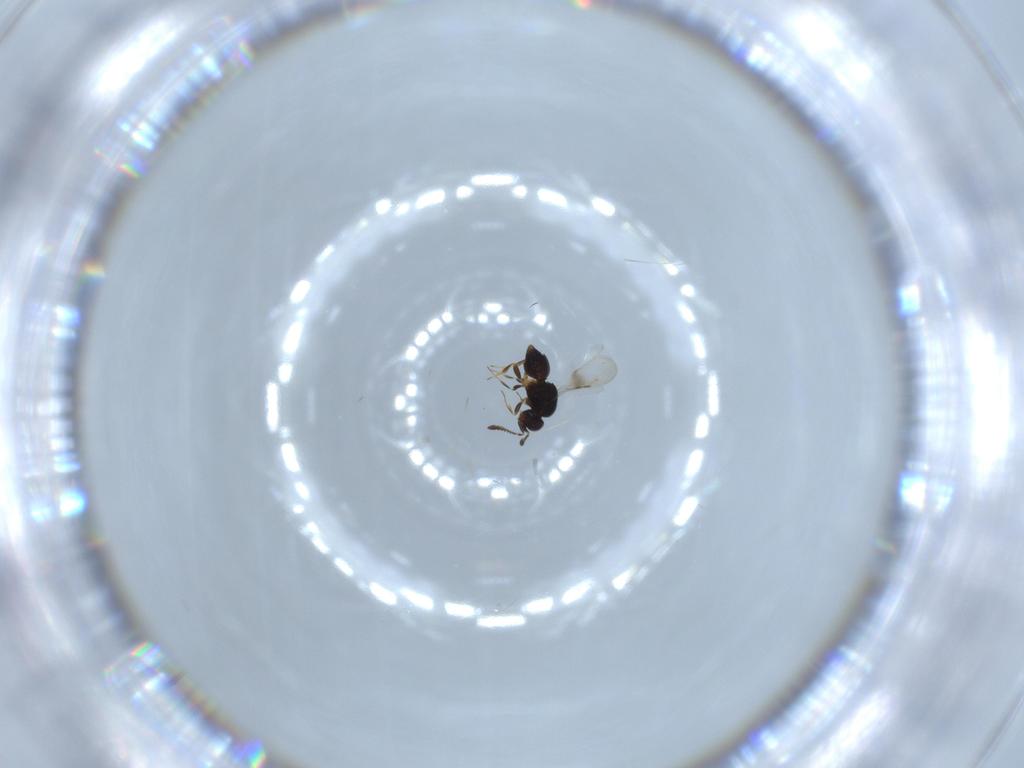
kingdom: Animalia
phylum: Arthropoda
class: Insecta
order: Hymenoptera
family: Ceraphronidae
